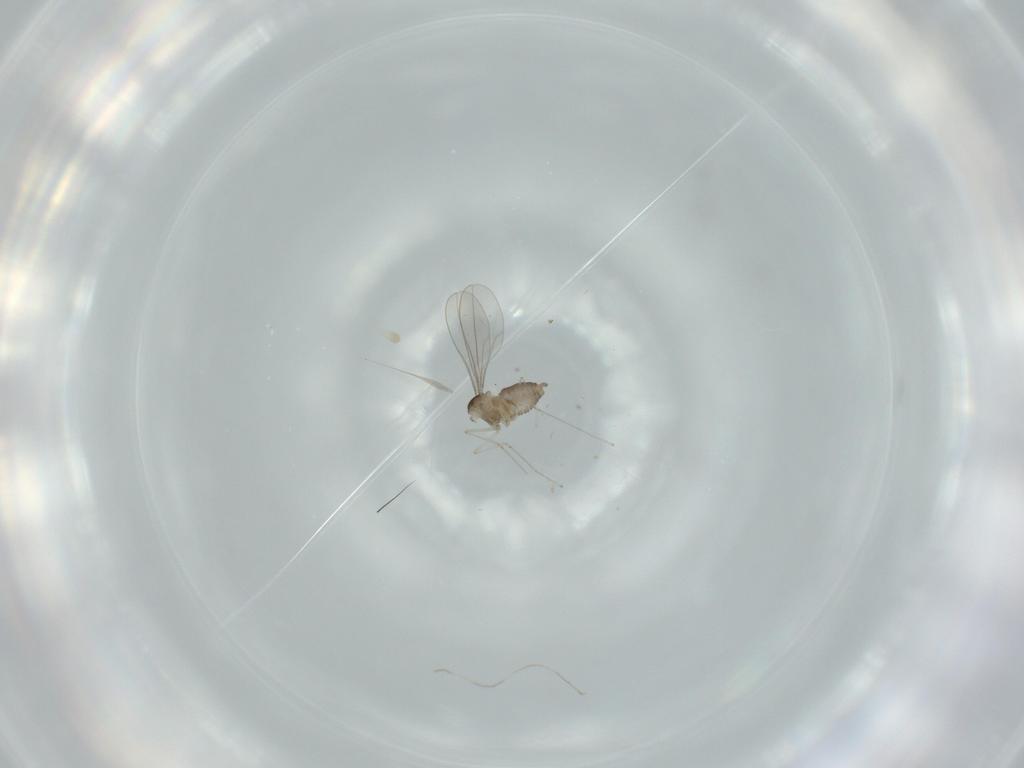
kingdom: Animalia
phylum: Arthropoda
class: Insecta
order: Diptera
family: Cecidomyiidae
